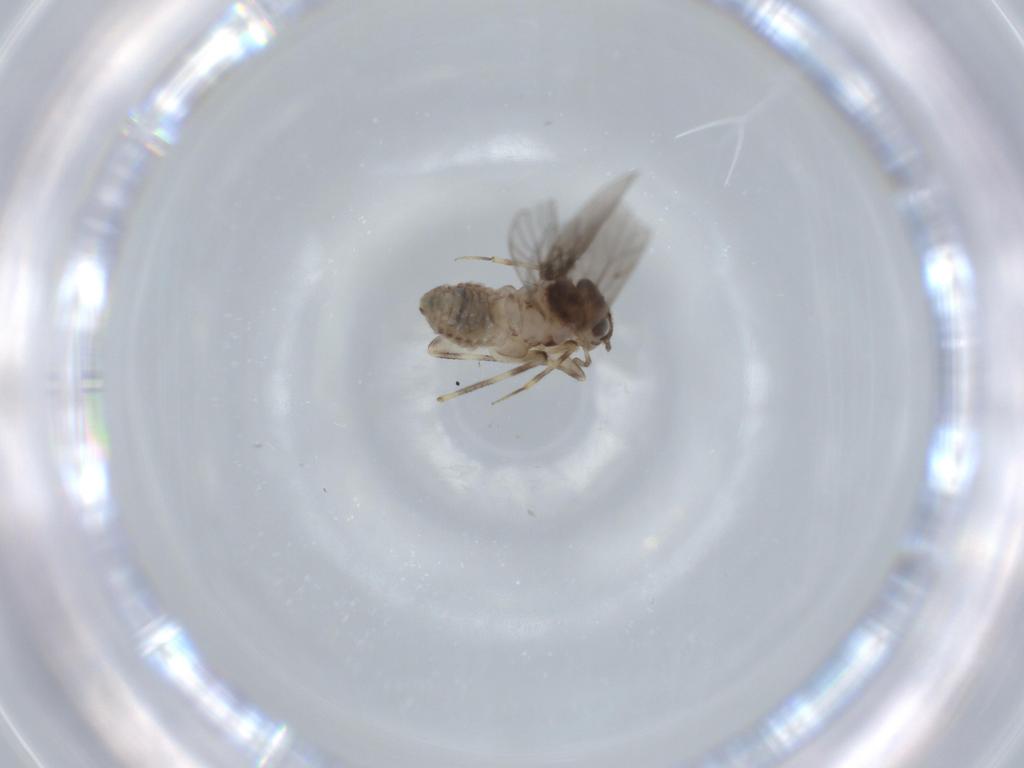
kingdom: Animalia
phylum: Arthropoda
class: Insecta
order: Psocodea
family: Lepidopsocidae
